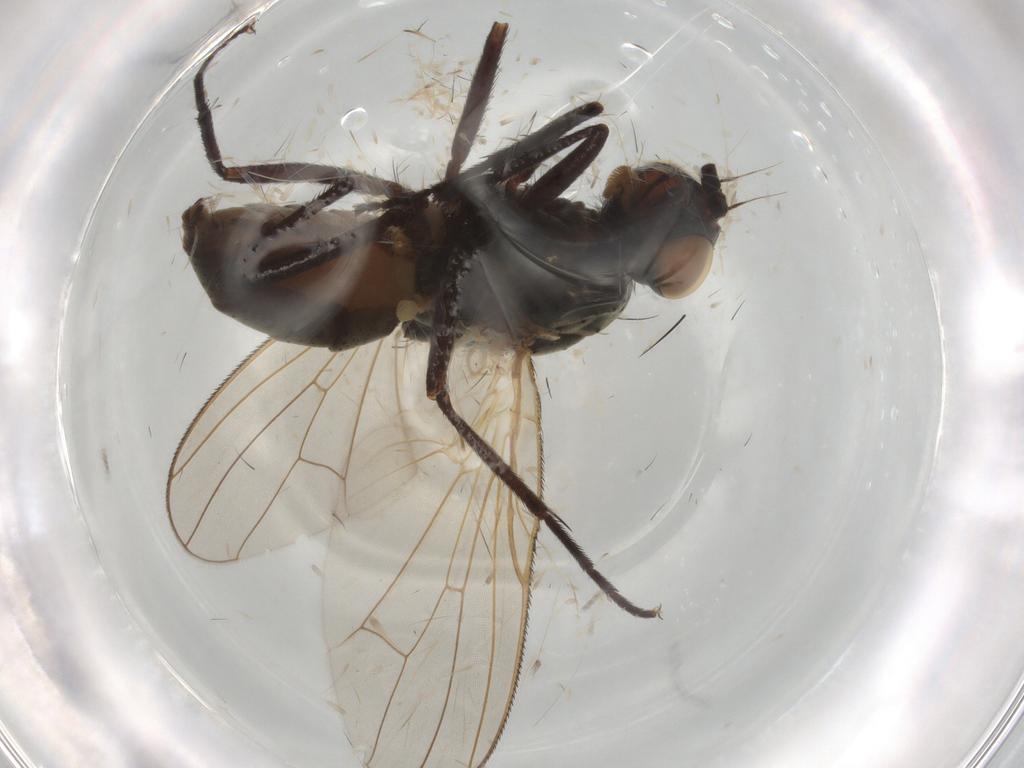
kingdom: Animalia
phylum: Arthropoda
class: Insecta
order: Diptera
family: Anthomyiidae
